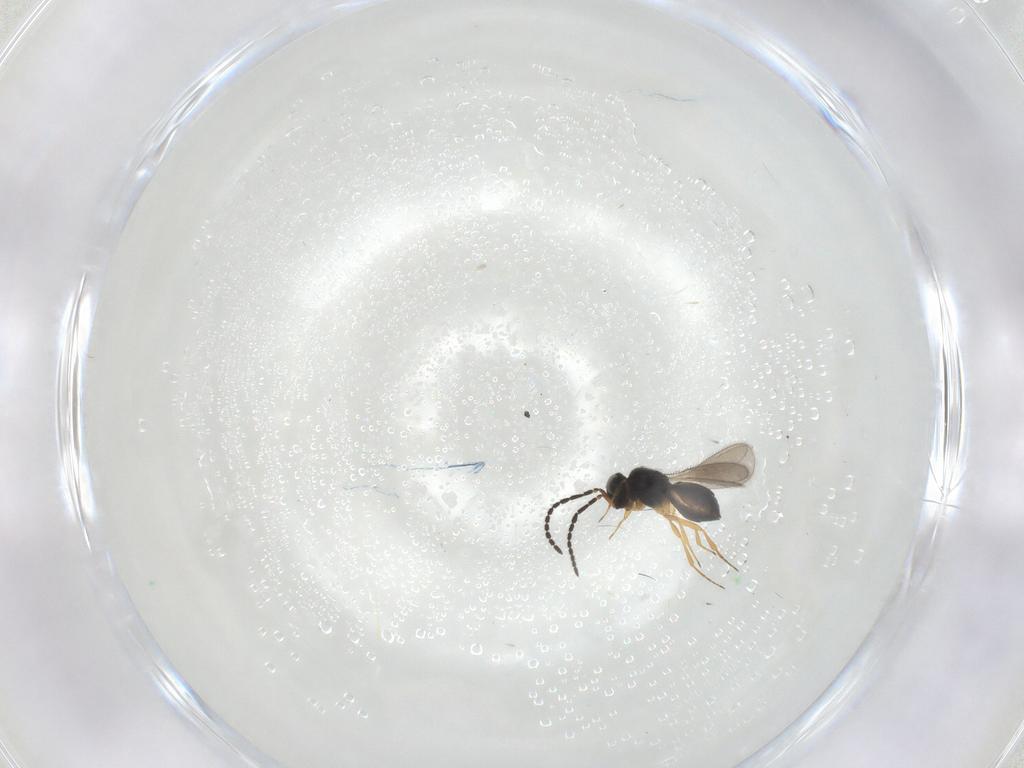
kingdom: Animalia
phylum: Arthropoda
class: Insecta
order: Hymenoptera
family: Scelionidae
